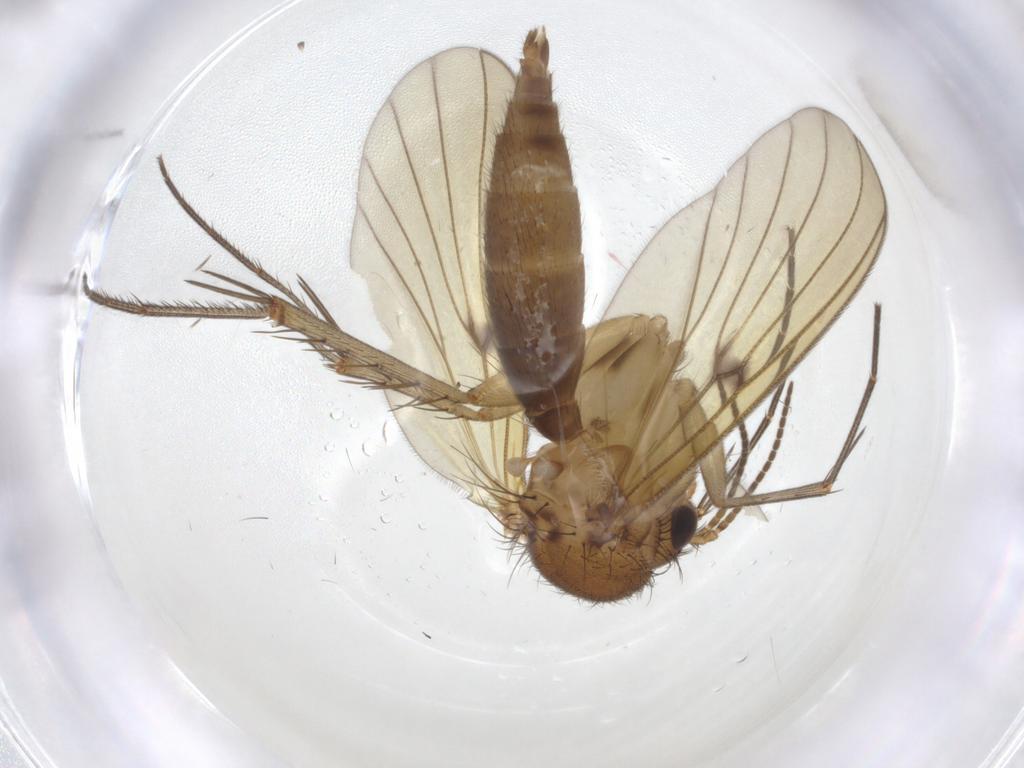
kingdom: Animalia
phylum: Arthropoda
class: Insecta
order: Diptera
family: Mycetophilidae
